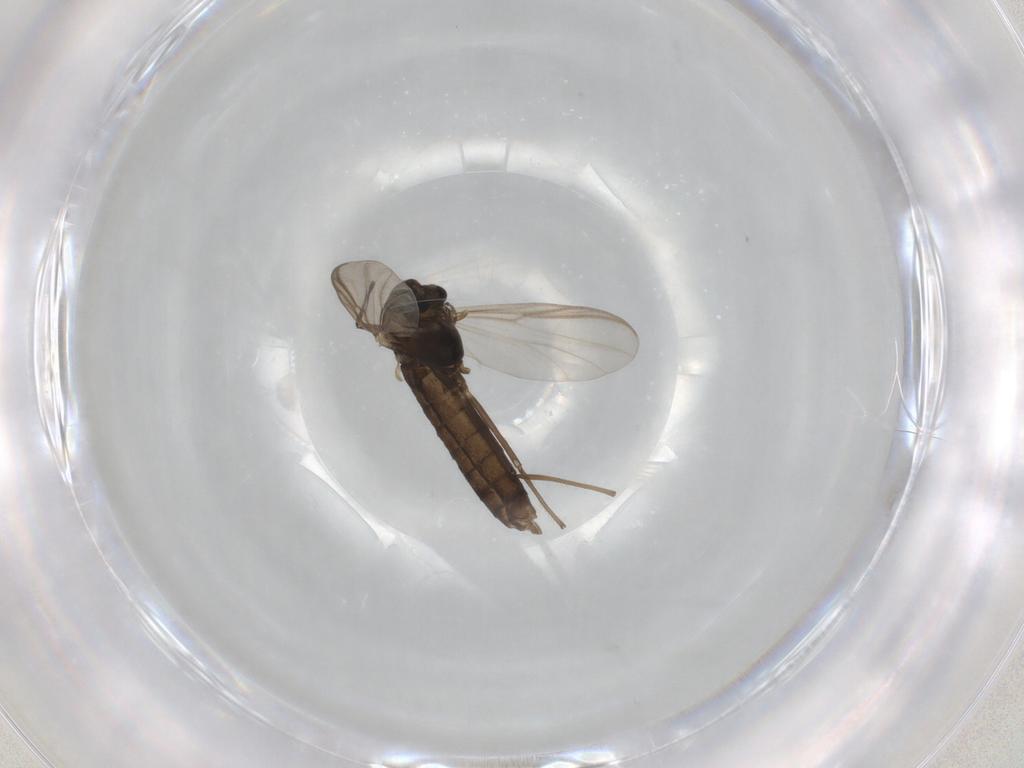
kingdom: Animalia
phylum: Arthropoda
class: Insecta
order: Diptera
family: Chironomidae
